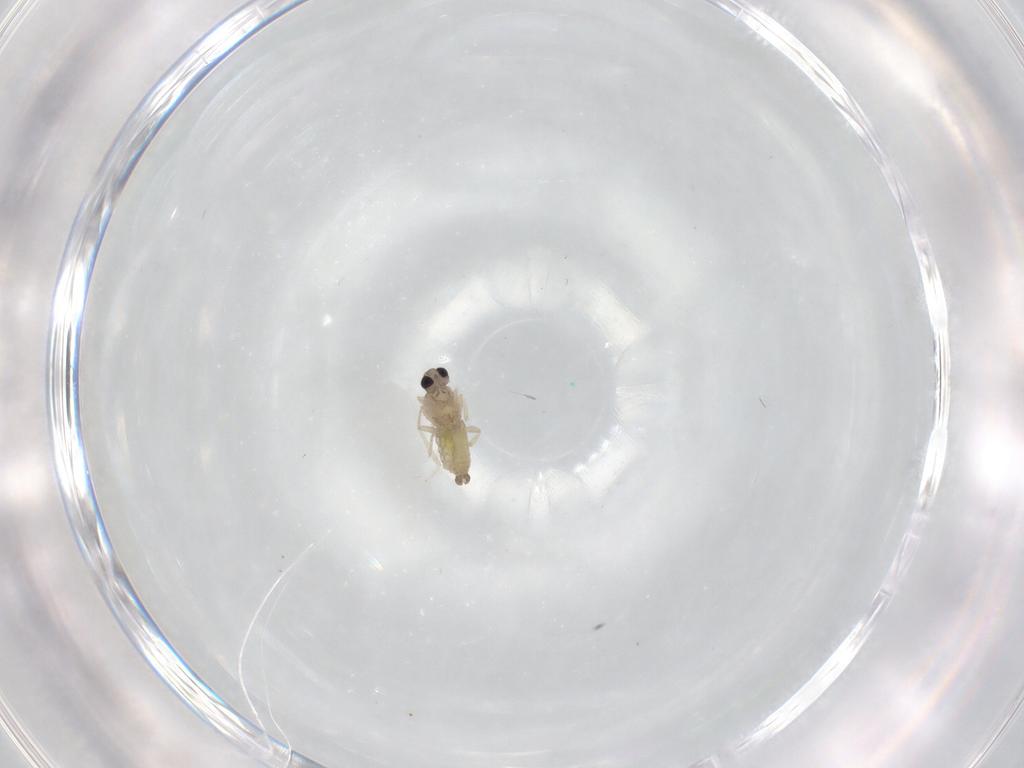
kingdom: Animalia
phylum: Arthropoda
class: Insecta
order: Diptera
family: Cecidomyiidae
